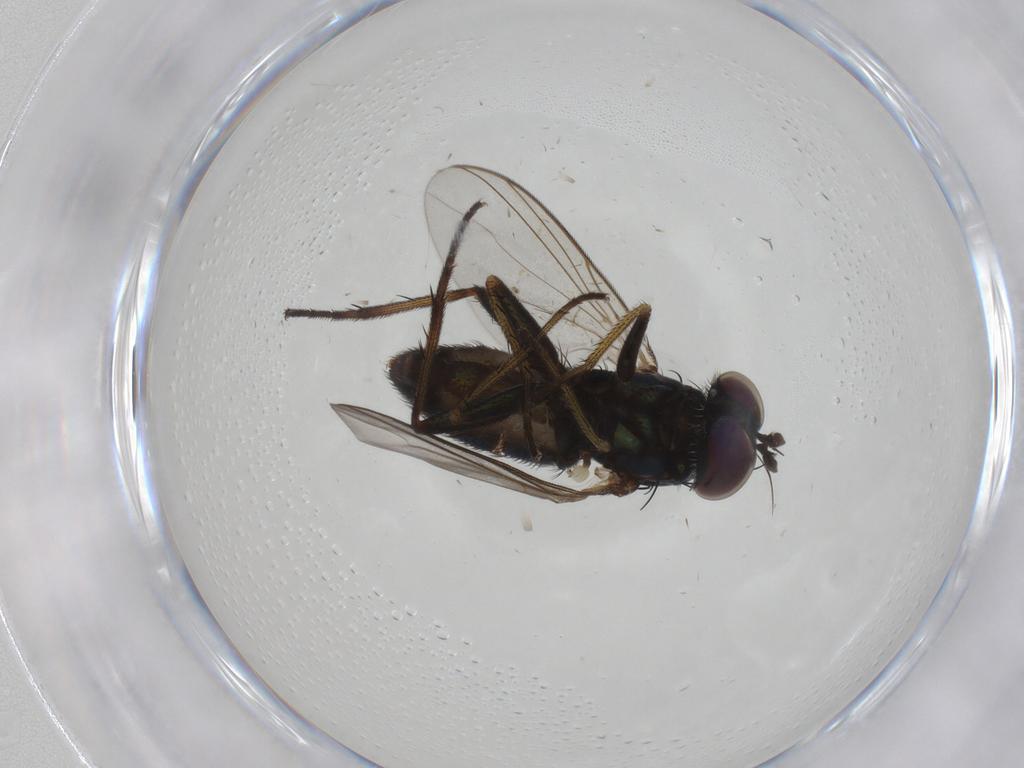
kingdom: Animalia
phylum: Arthropoda
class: Insecta
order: Diptera
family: Dolichopodidae
